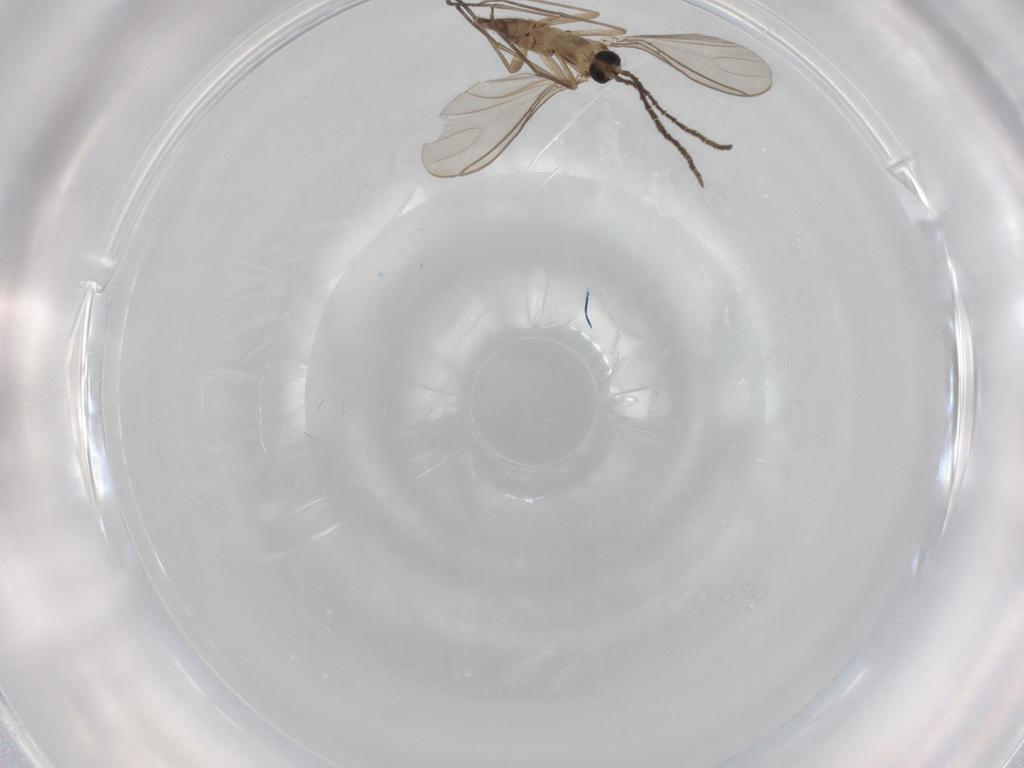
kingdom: Animalia
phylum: Arthropoda
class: Insecta
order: Diptera
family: Sciaridae
